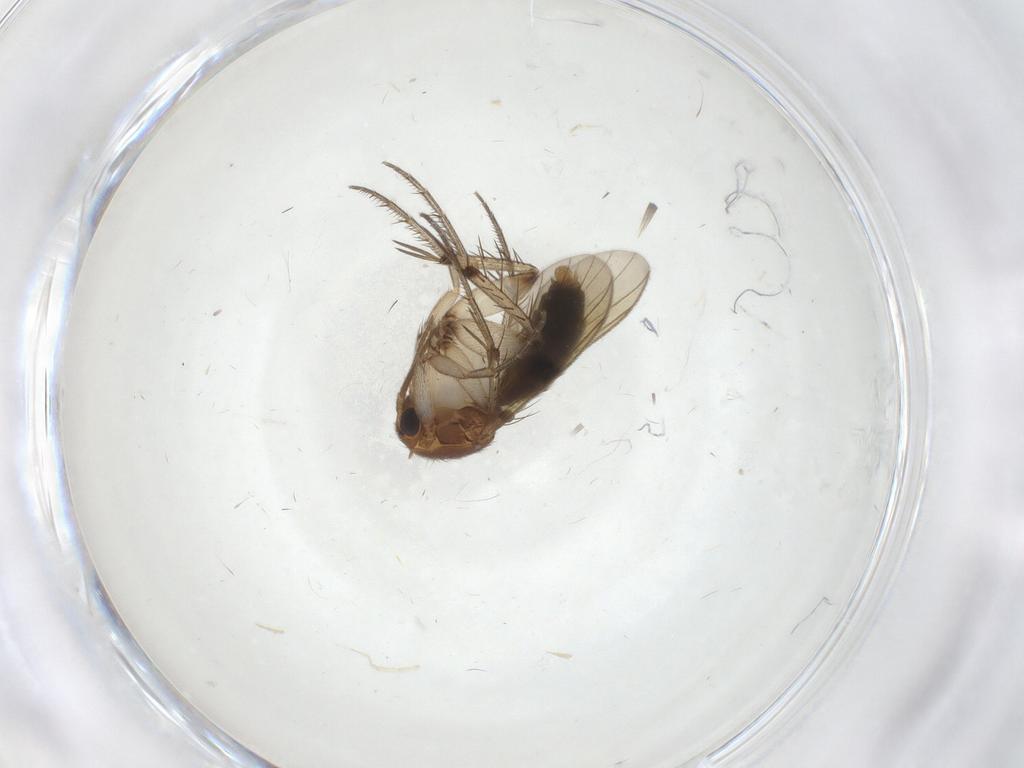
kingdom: Animalia
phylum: Arthropoda
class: Insecta
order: Diptera
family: Mycetophilidae
